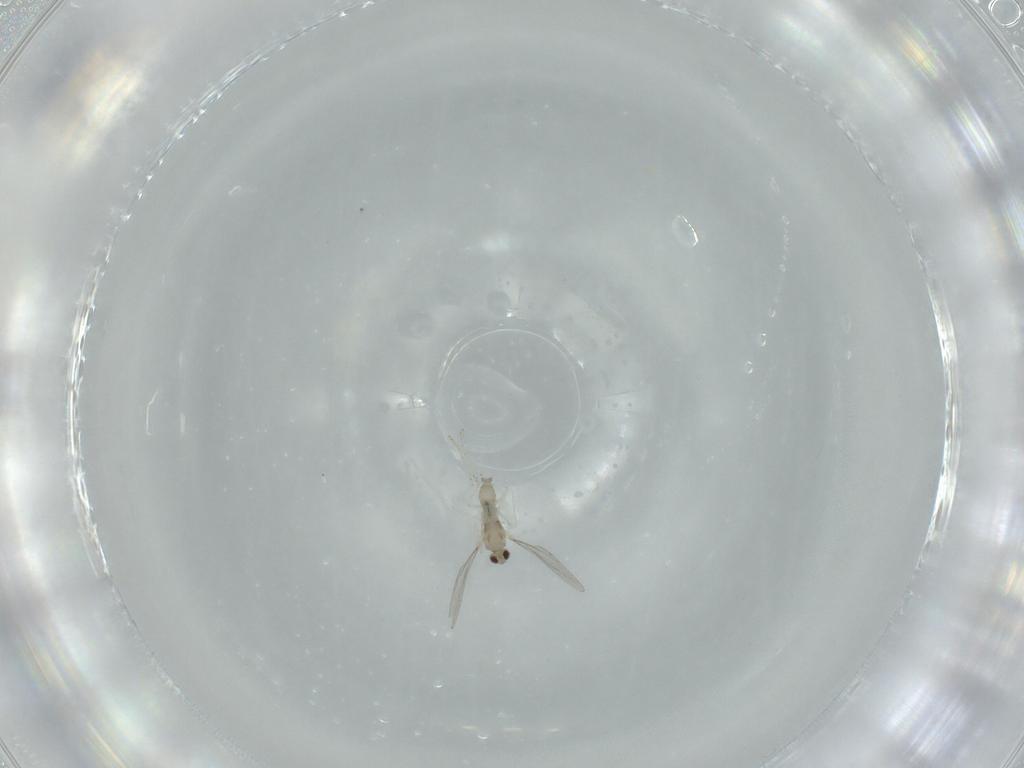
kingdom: Animalia
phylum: Arthropoda
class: Insecta
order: Diptera
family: Cecidomyiidae
